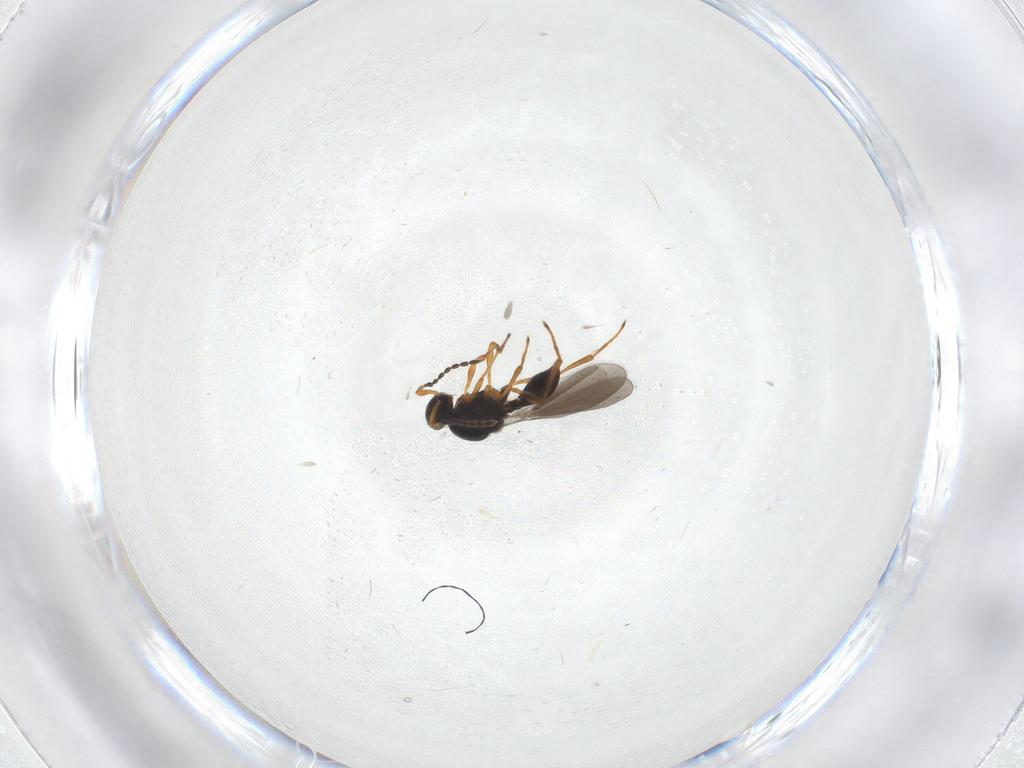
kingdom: Animalia
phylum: Arthropoda
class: Insecta
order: Hymenoptera
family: Platygastridae
